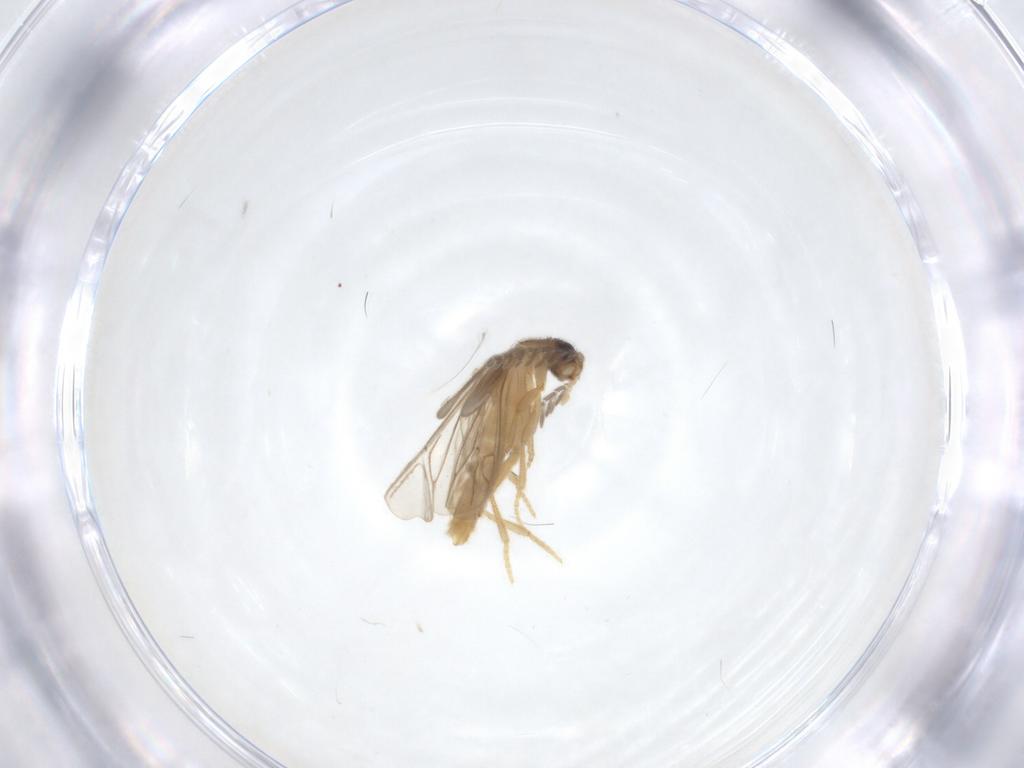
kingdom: Animalia
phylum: Arthropoda
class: Insecta
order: Coleoptera
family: Phengodidae
